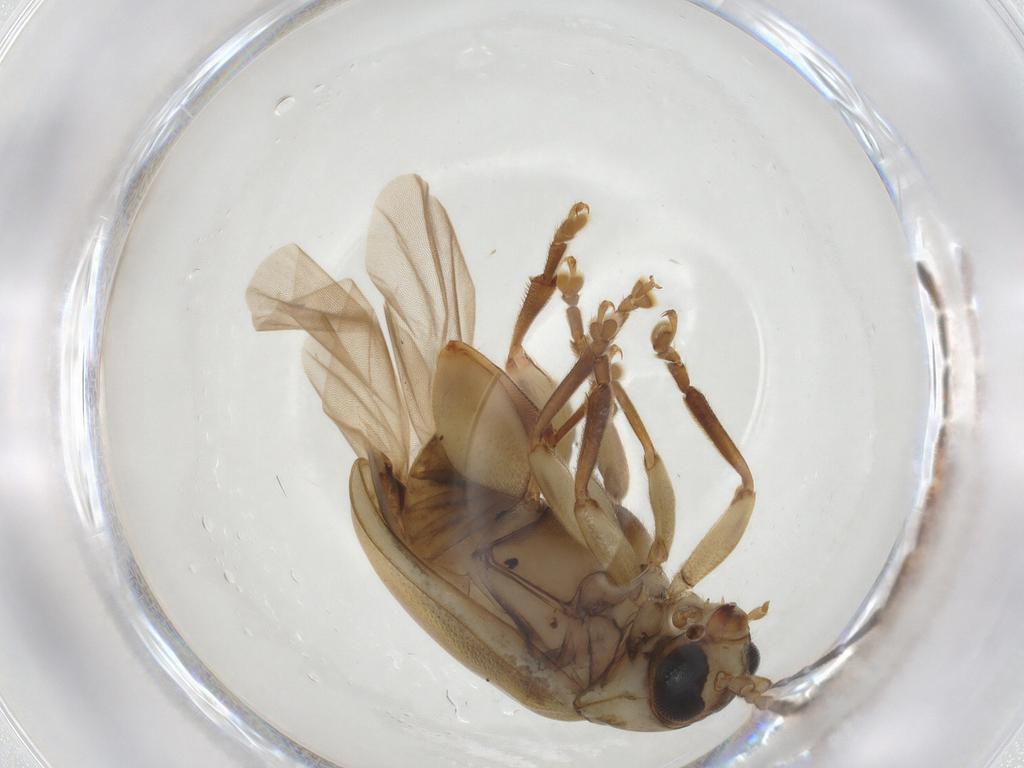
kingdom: Animalia
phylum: Arthropoda
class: Insecta
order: Coleoptera
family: Chrysomelidae
